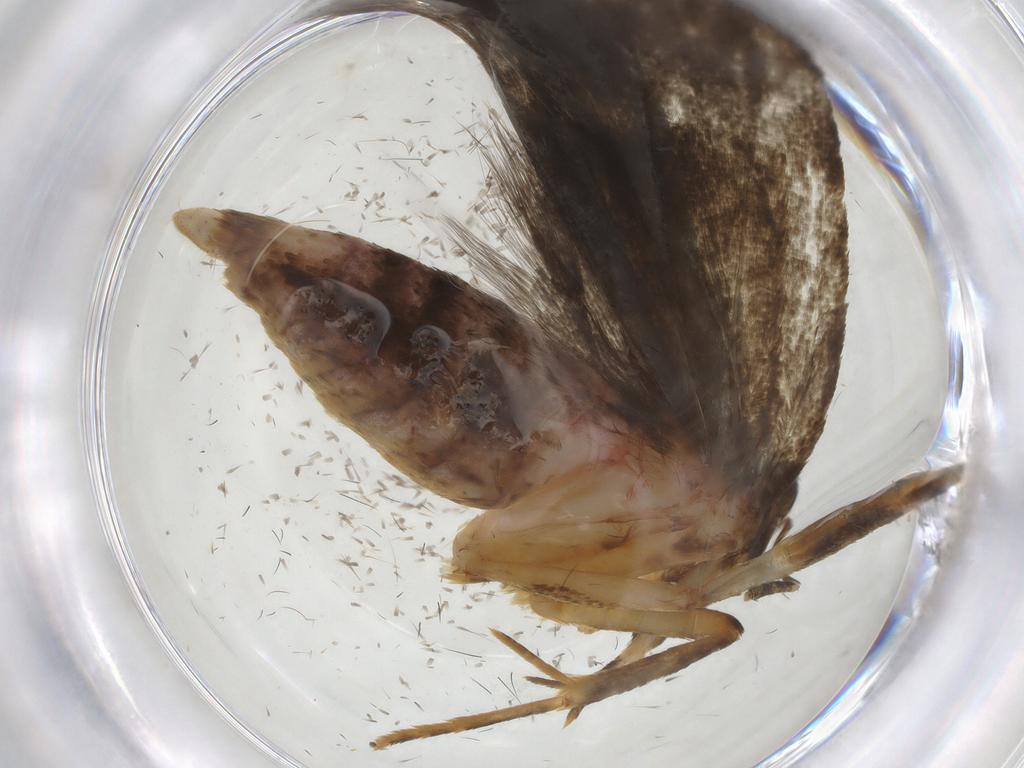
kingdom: Animalia
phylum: Arthropoda
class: Insecta
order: Lepidoptera
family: Autostichidae
